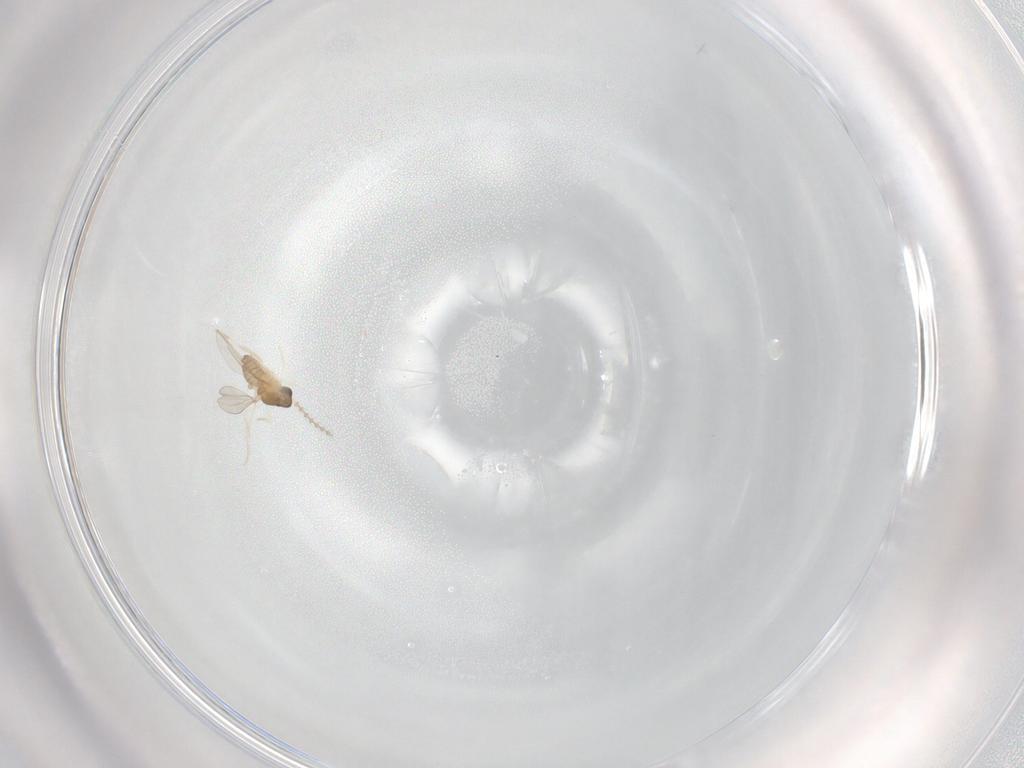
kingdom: Animalia
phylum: Arthropoda
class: Insecta
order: Diptera
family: Cecidomyiidae
